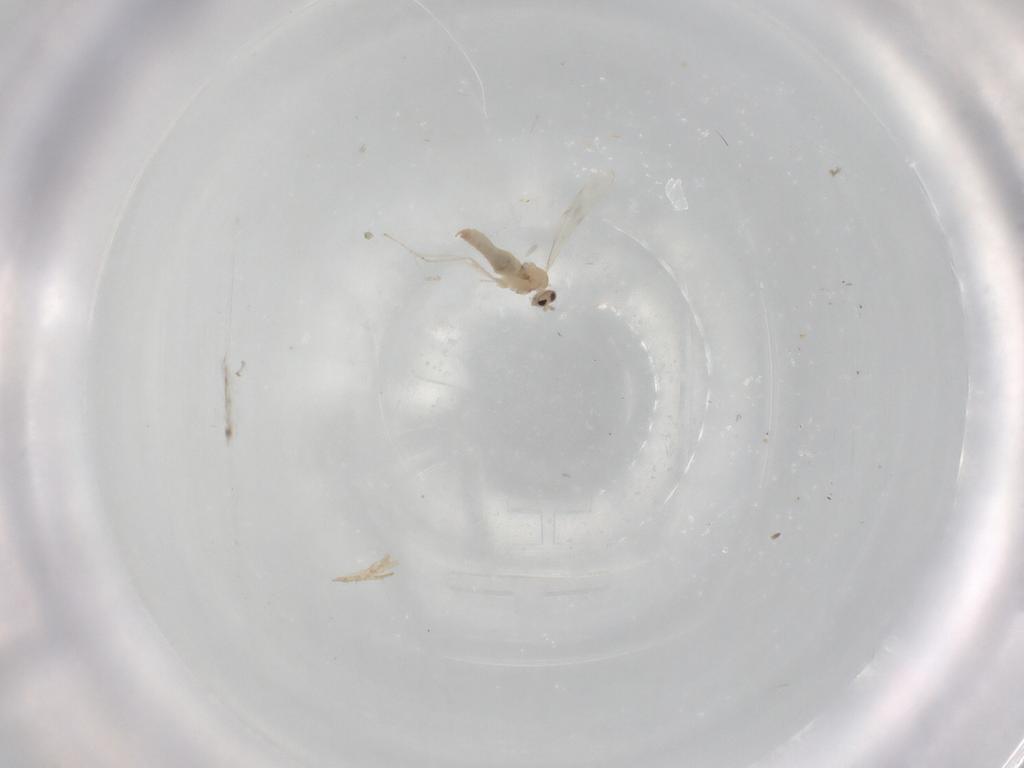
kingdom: Animalia
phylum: Arthropoda
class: Insecta
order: Diptera
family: Cecidomyiidae
